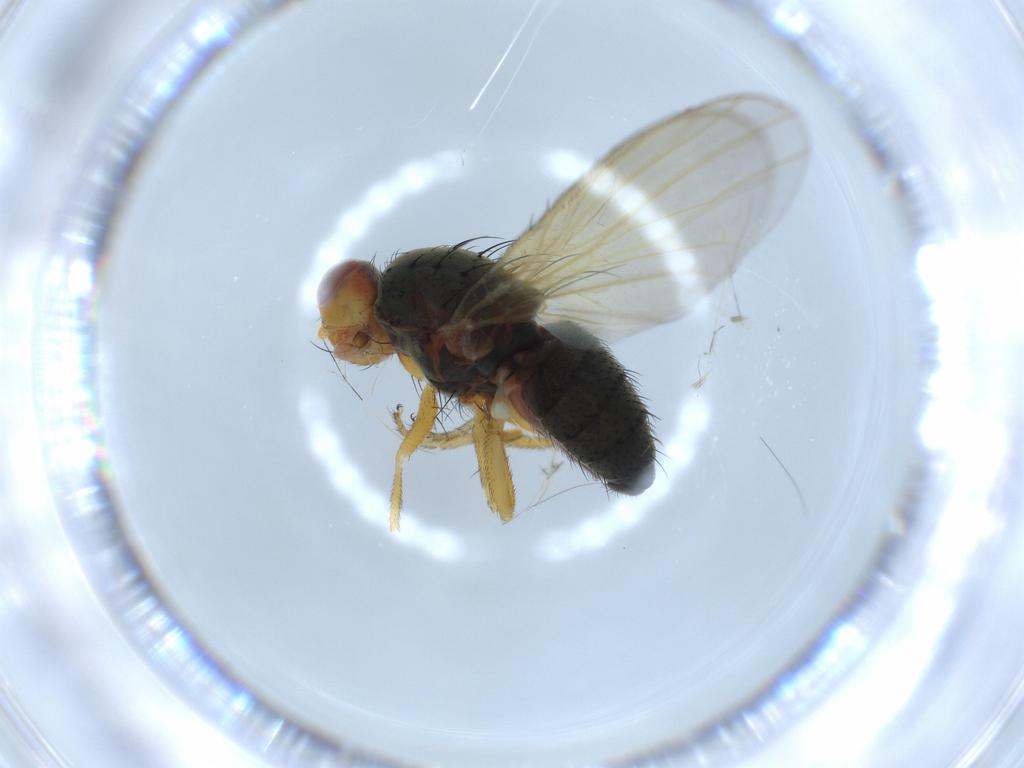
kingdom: Animalia
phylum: Arthropoda
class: Insecta
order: Diptera
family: Heleomyzidae
